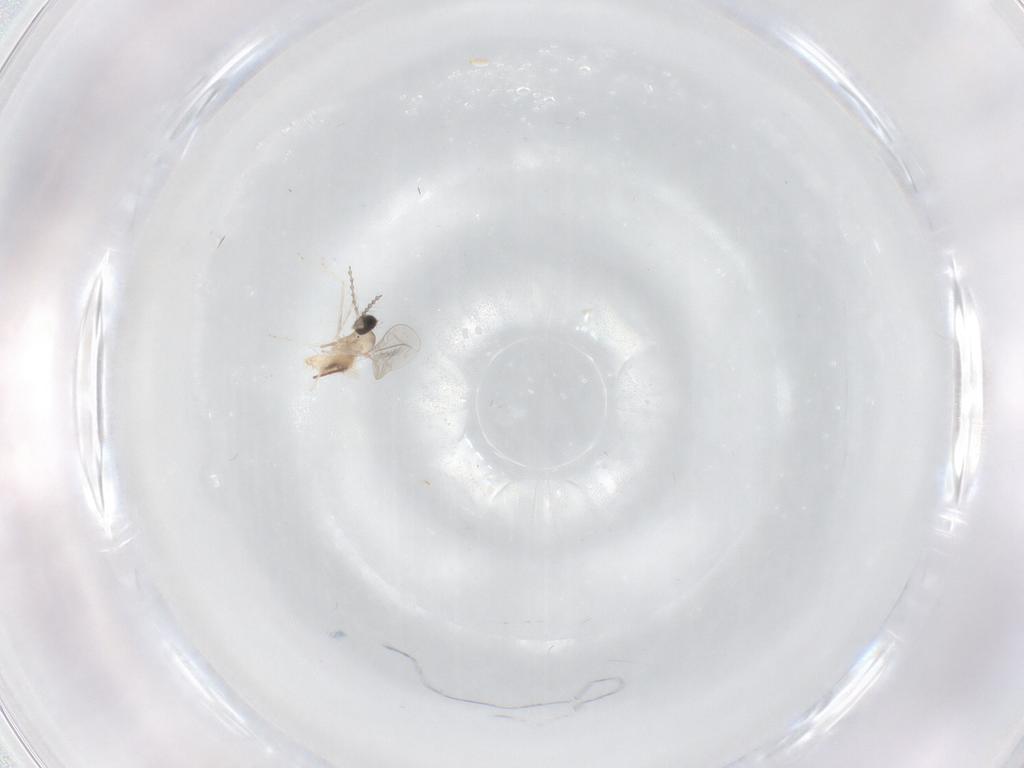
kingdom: Animalia
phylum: Arthropoda
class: Insecta
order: Diptera
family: Cecidomyiidae
